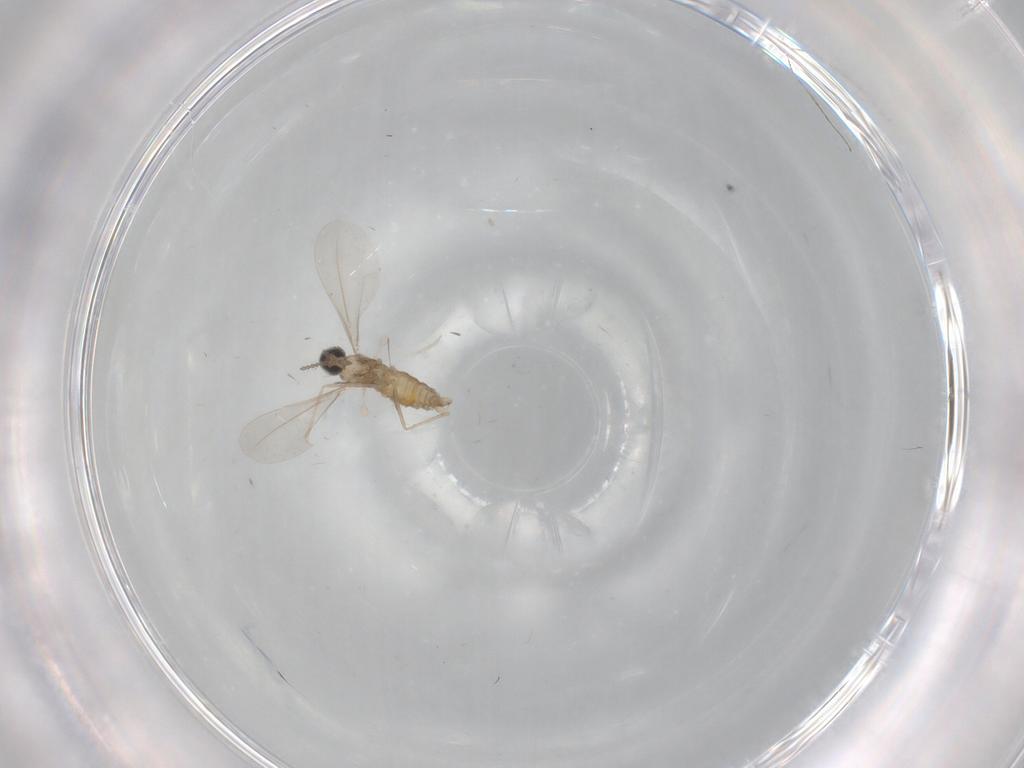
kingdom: Animalia
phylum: Arthropoda
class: Insecta
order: Diptera
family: Cecidomyiidae
